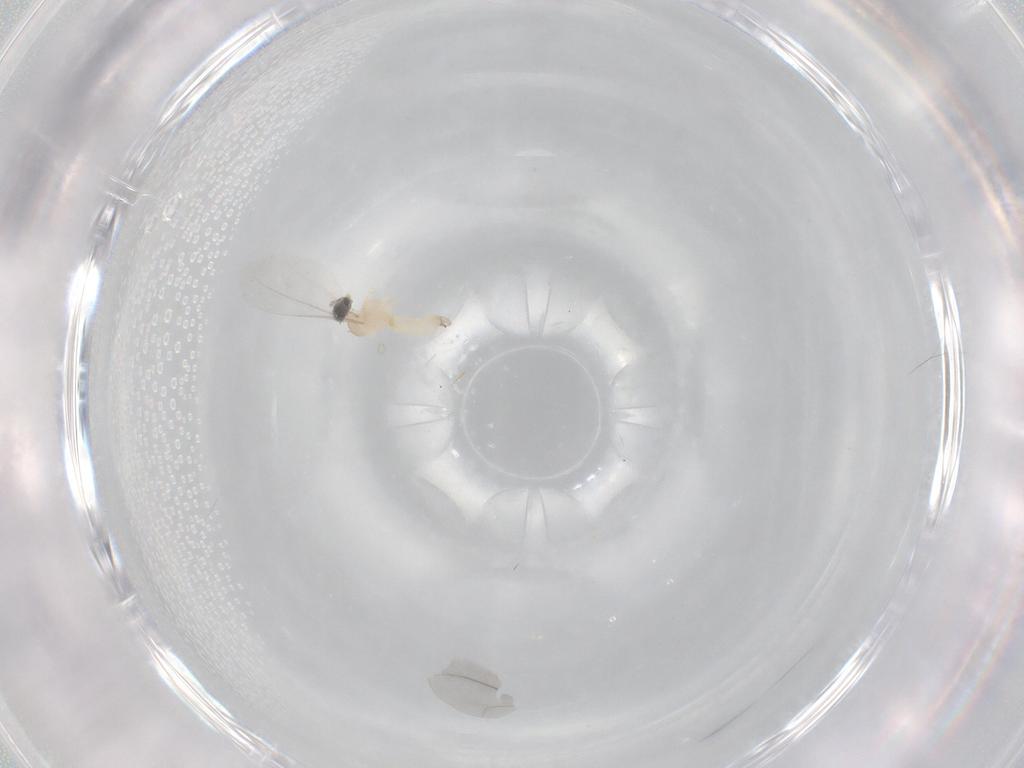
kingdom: Animalia
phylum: Arthropoda
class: Insecta
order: Diptera
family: Cecidomyiidae
